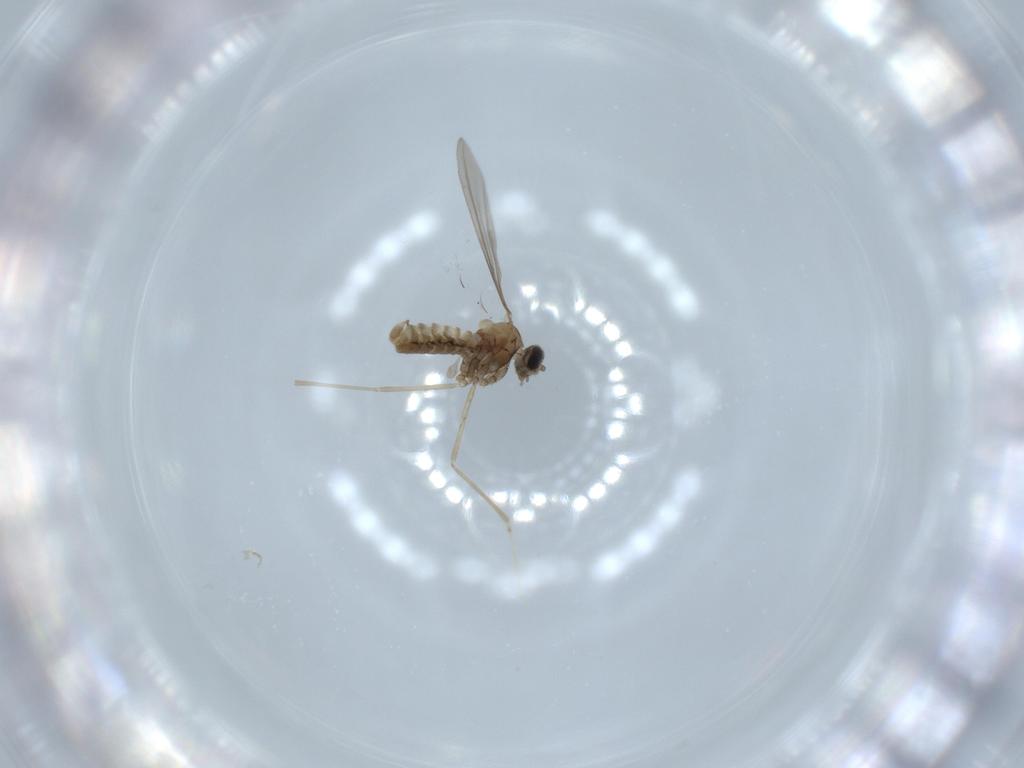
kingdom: Animalia
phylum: Arthropoda
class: Insecta
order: Diptera
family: Cecidomyiidae
